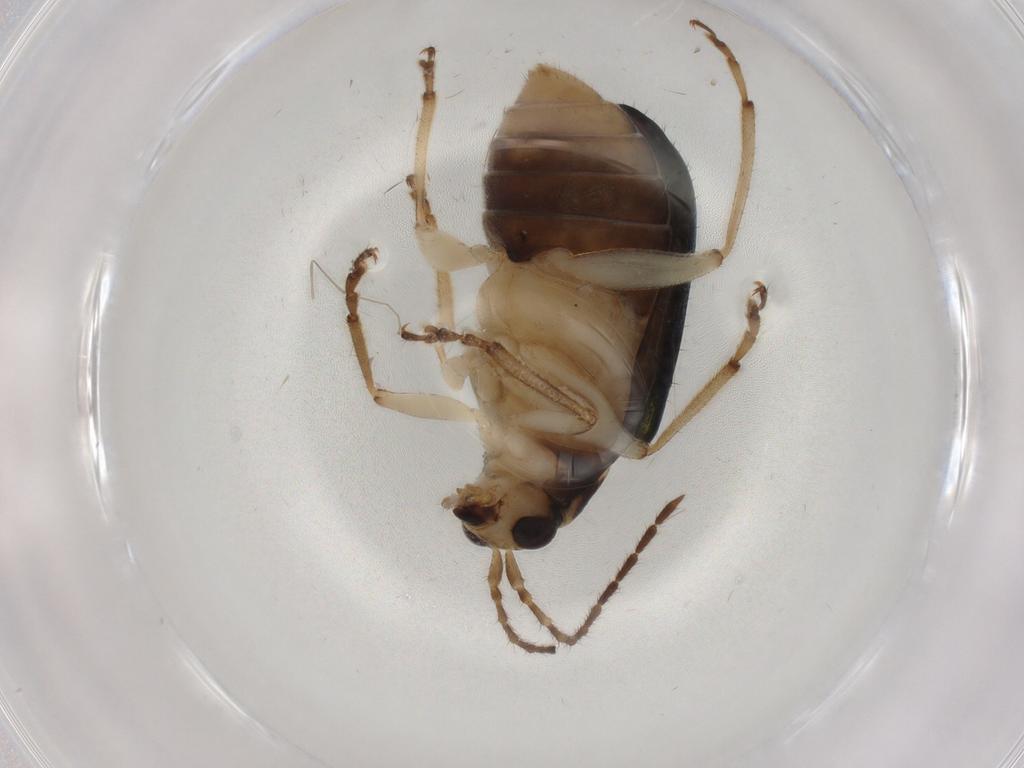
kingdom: Animalia
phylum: Arthropoda
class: Insecta
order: Coleoptera
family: Chrysomelidae
